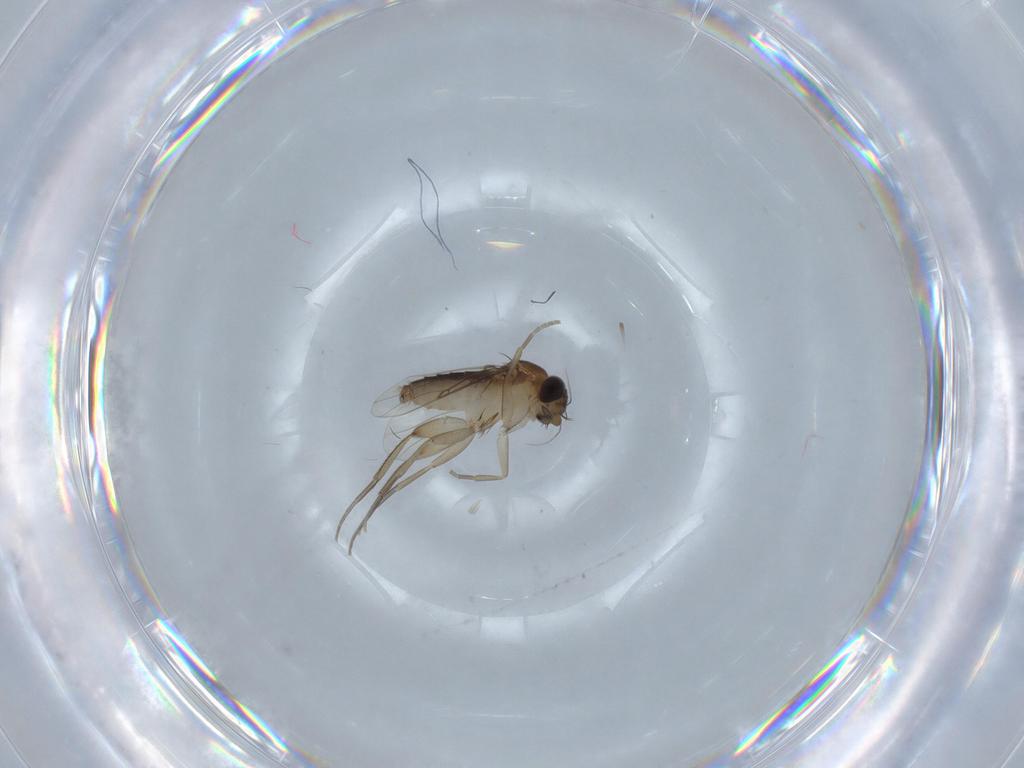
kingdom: Animalia
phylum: Arthropoda
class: Insecta
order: Diptera
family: Phoridae
